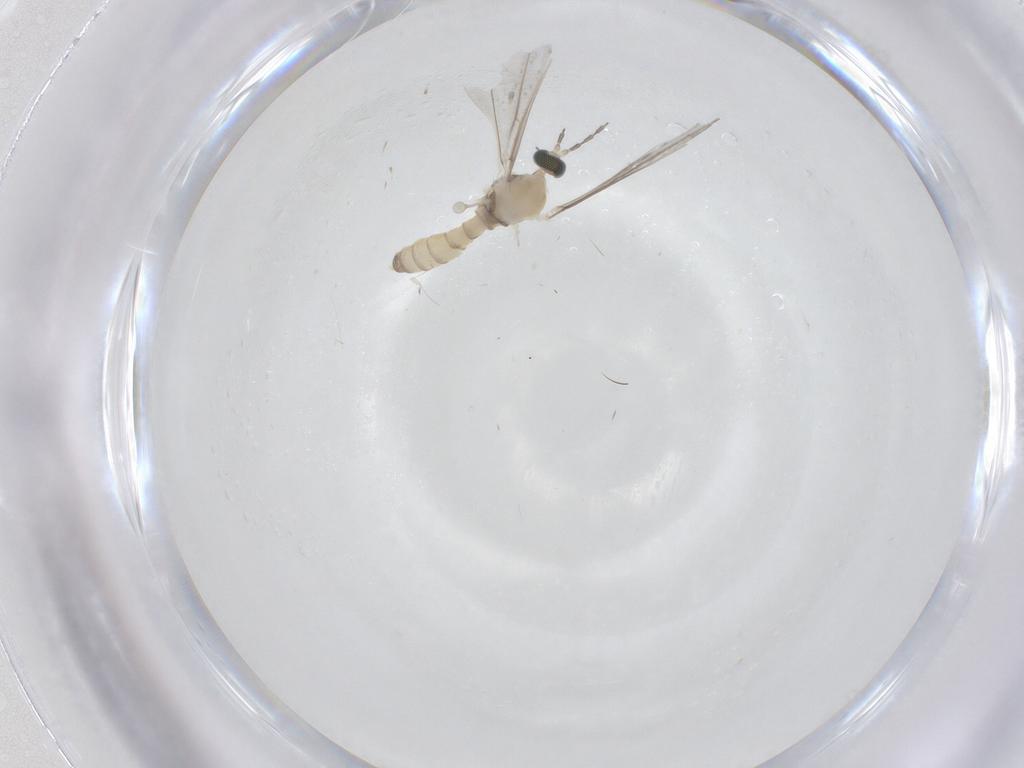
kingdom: Animalia
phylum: Arthropoda
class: Insecta
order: Diptera
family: Cecidomyiidae
